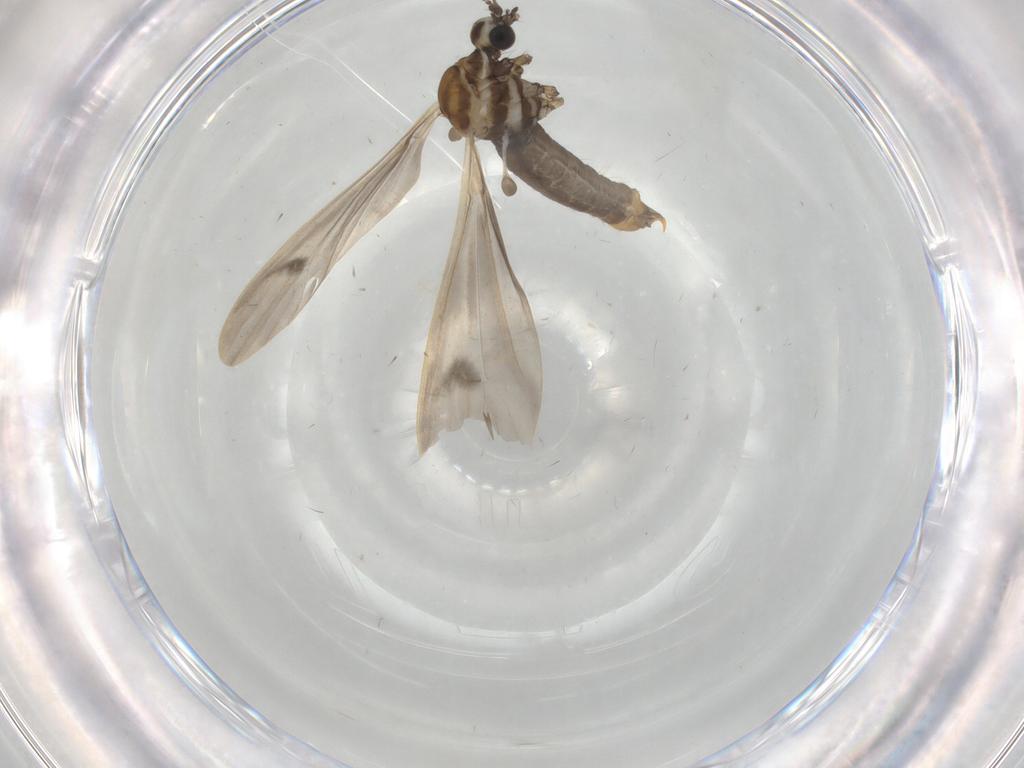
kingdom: Animalia
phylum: Arthropoda
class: Insecta
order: Diptera
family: Limoniidae
